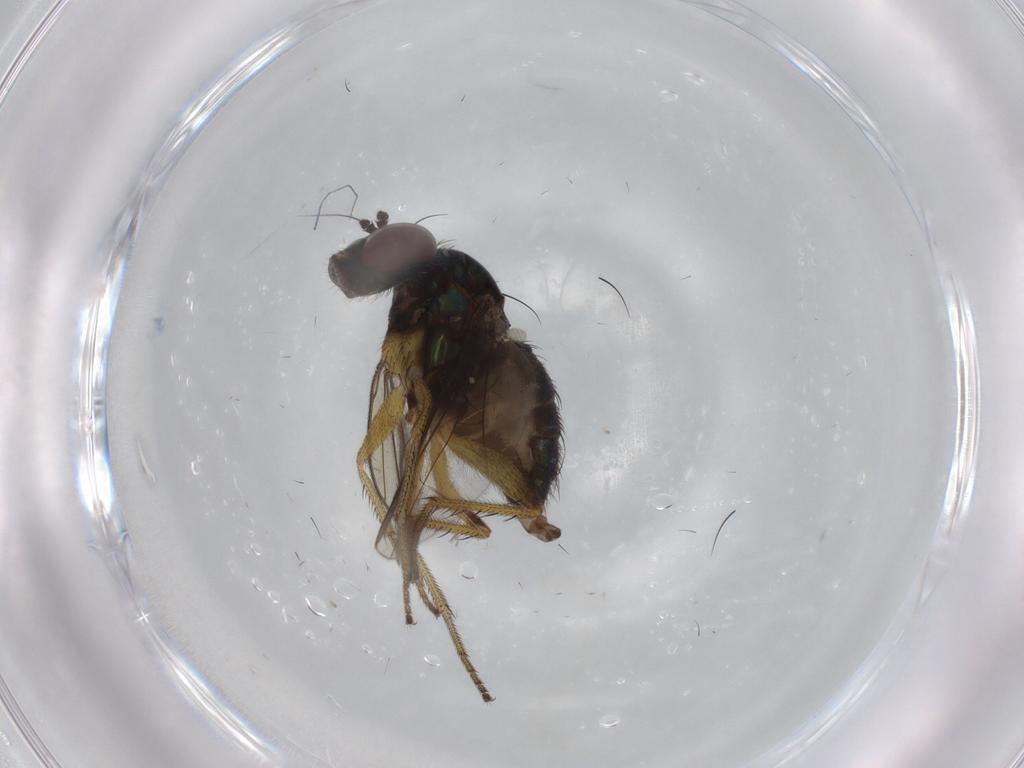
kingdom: Animalia
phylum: Arthropoda
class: Insecta
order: Diptera
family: Dolichopodidae
